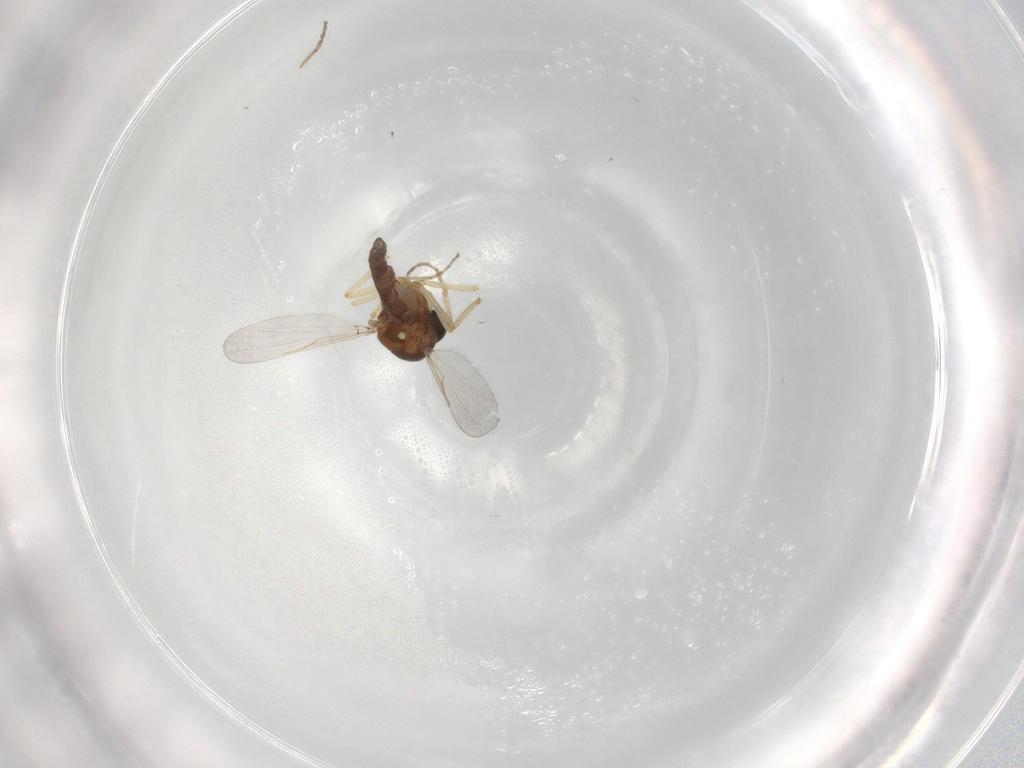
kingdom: Animalia
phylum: Arthropoda
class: Insecta
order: Diptera
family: Ceratopogonidae
